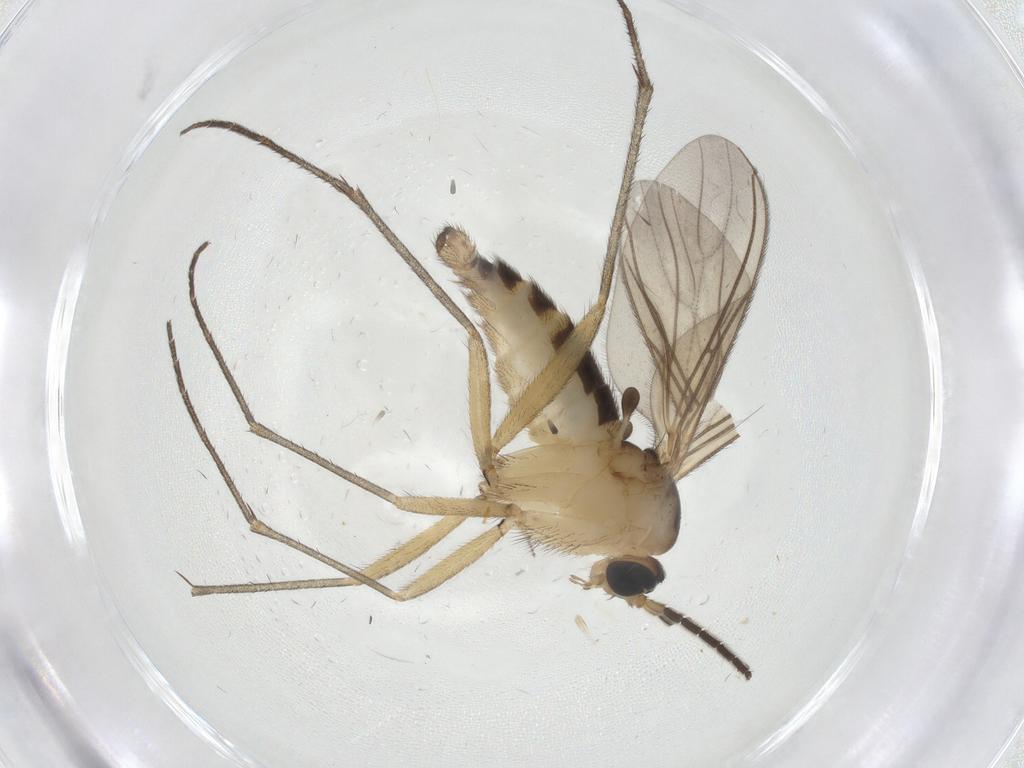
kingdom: Animalia
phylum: Arthropoda
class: Insecta
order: Diptera
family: Sciaridae
